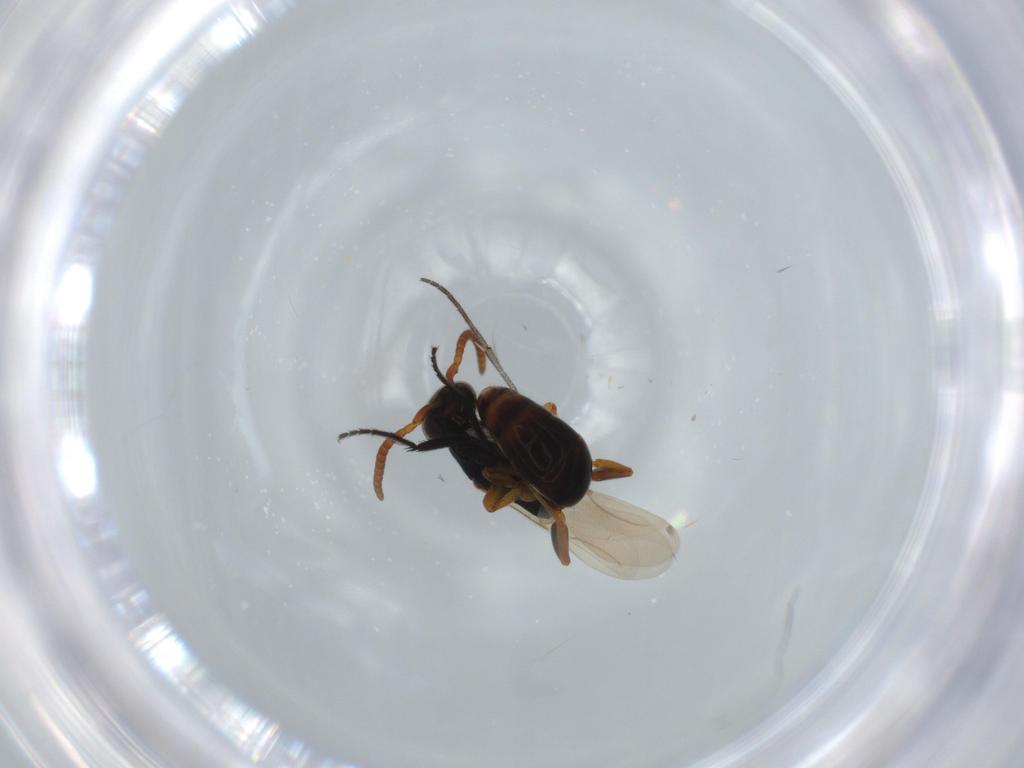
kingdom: Animalia
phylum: Arthropoda
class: Insecta
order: Hymenoptera
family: Bethylidae
